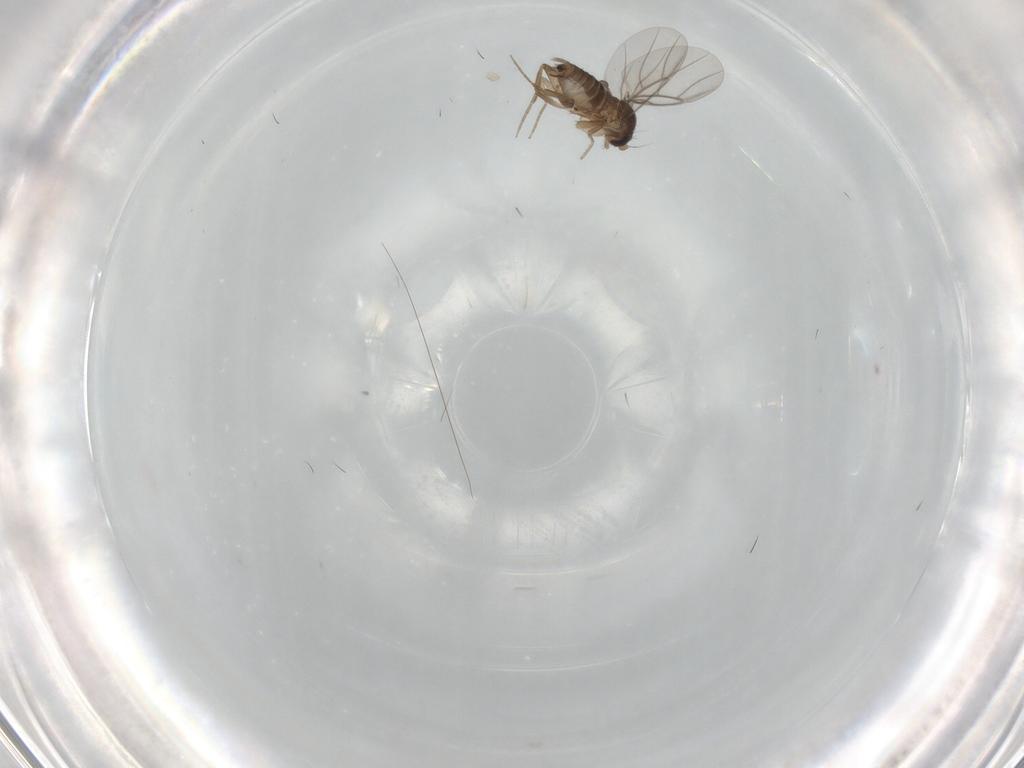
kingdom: Animalia
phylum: Arthropoda
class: Insecta
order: Diptera
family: Phoridae
